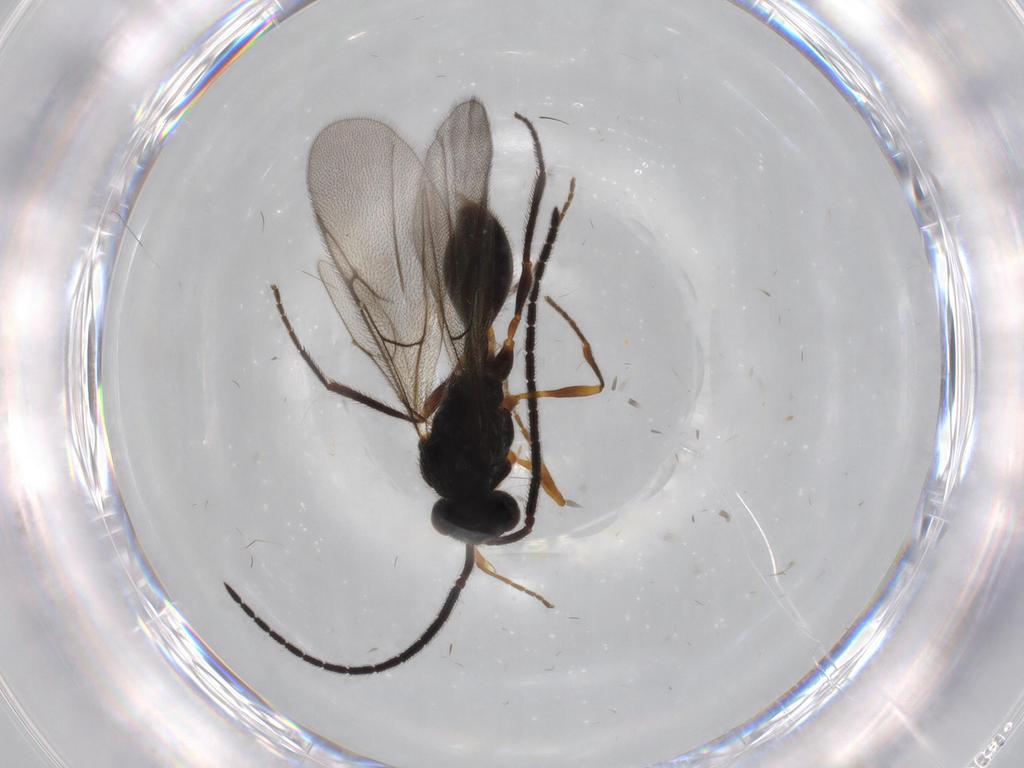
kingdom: Animalia
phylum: Arthropoda
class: Insecta
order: Hymenoptera
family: Diapriidae
